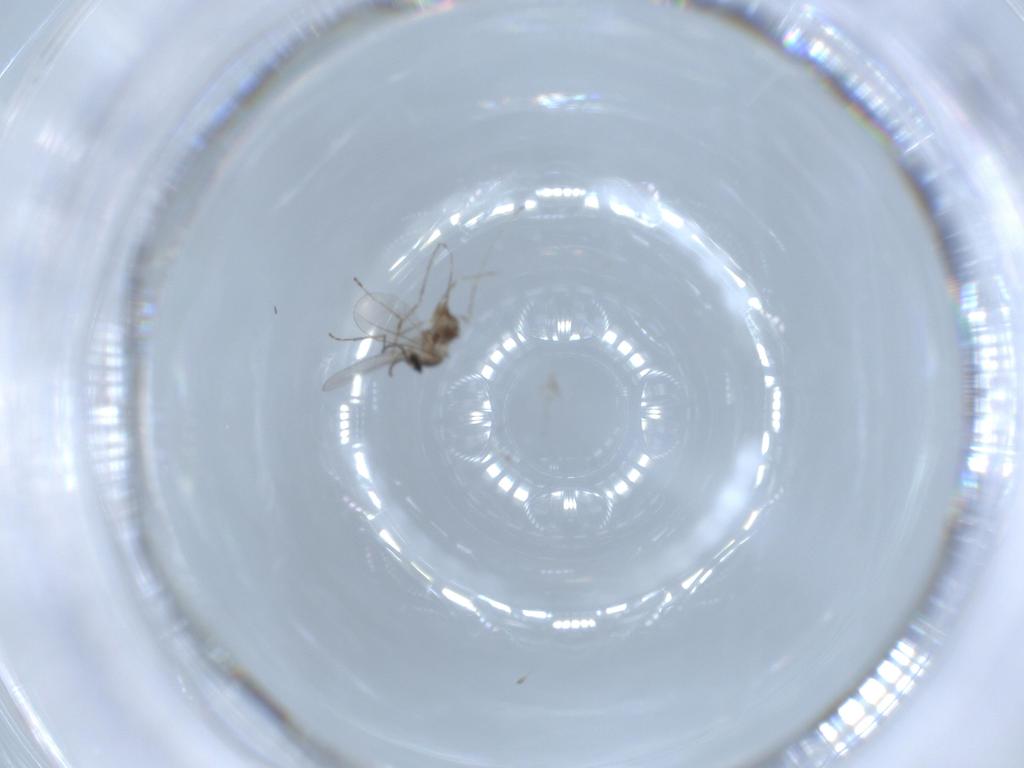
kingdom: Animalia
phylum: Arthropoda
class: Insecta
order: Diptera
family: Cecidomyiidae
